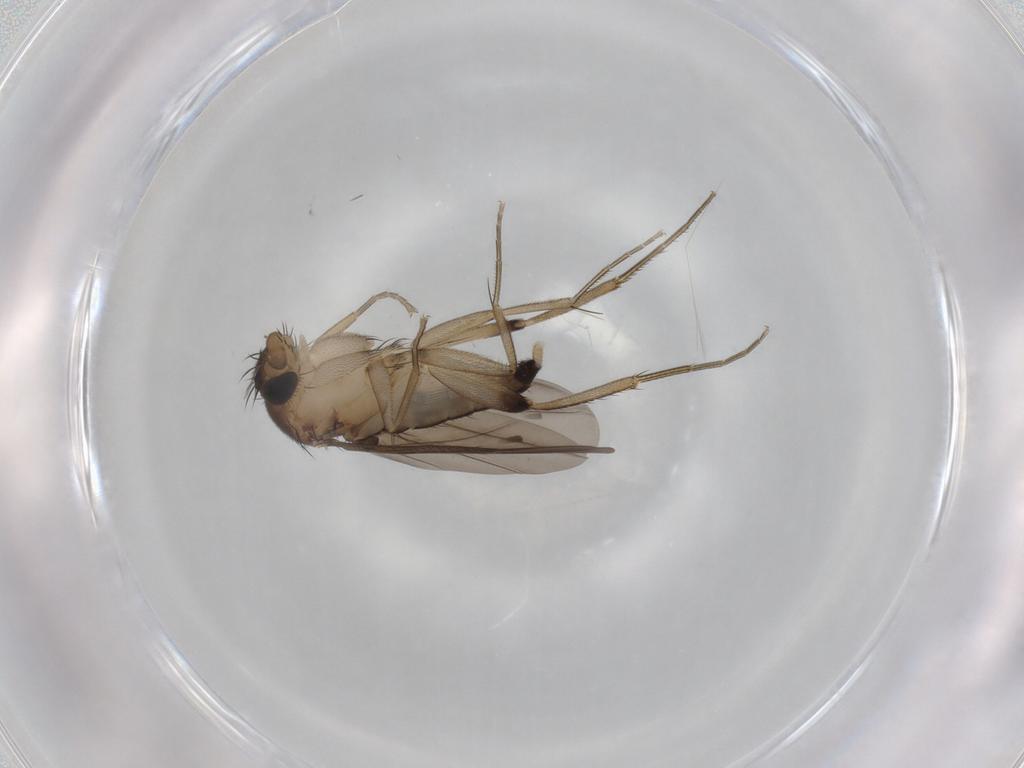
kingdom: Animalia
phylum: Arthropoda
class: Insecta
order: Diptera
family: Phoridae
